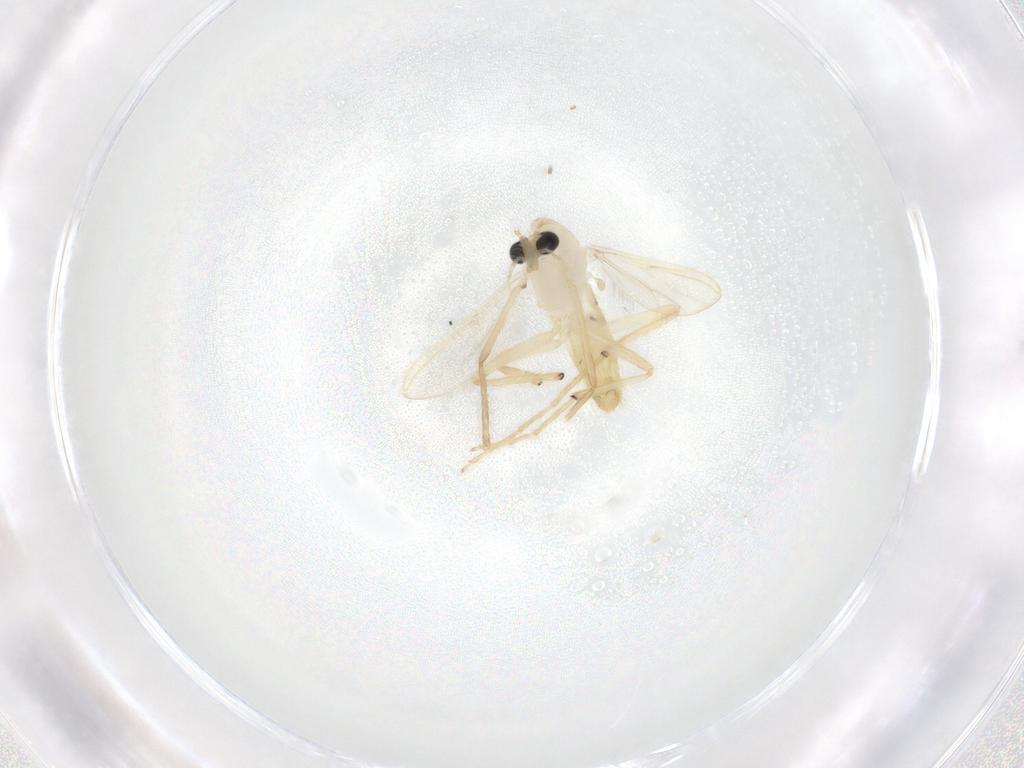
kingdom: Animalia
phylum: Arthropoda
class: Insecta
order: Diptera
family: Chironomidae
